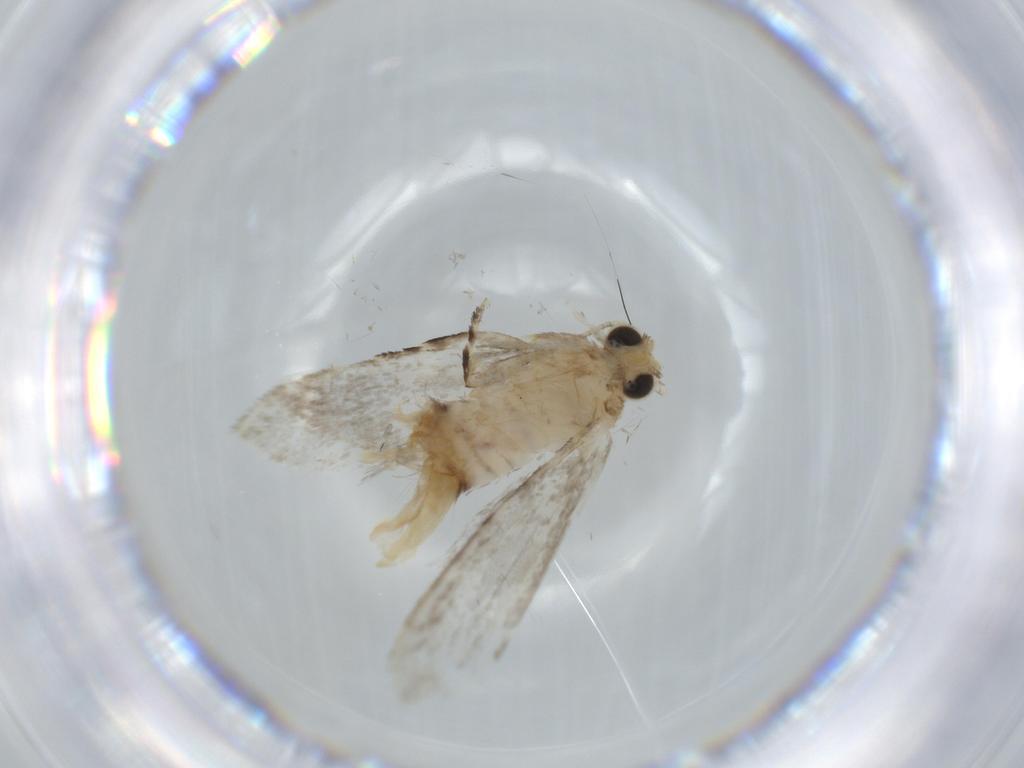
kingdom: Animalia
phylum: Arthropoda
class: Insecta
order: Lepidoptera
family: Tineidae
